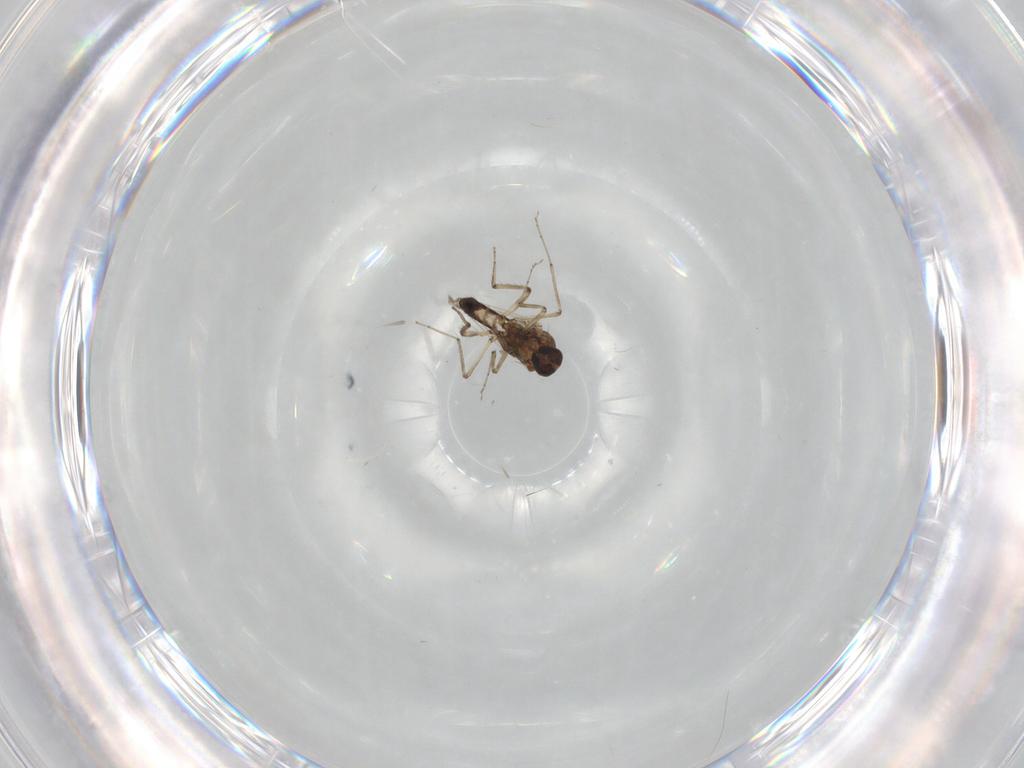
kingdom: Animalia
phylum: Arthropoda
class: Insecta
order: Diptera
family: Ceratopogonidae
